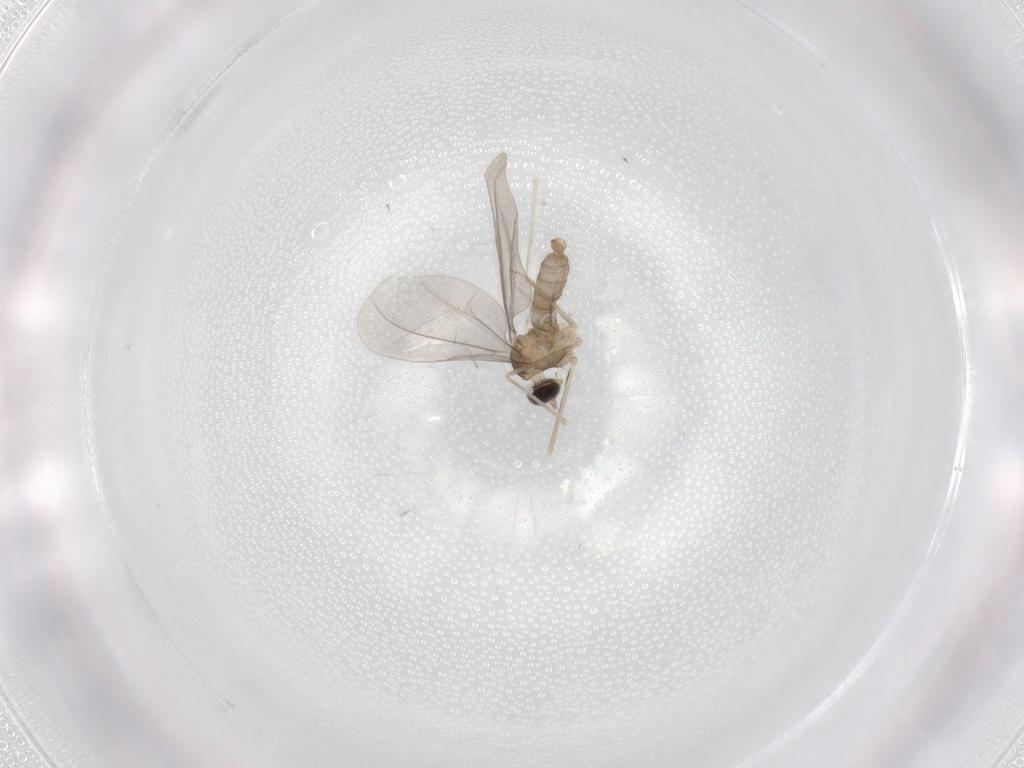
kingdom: Animalia
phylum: Arthropoda
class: Insecta
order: Diptera
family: Cecidomyiidae
